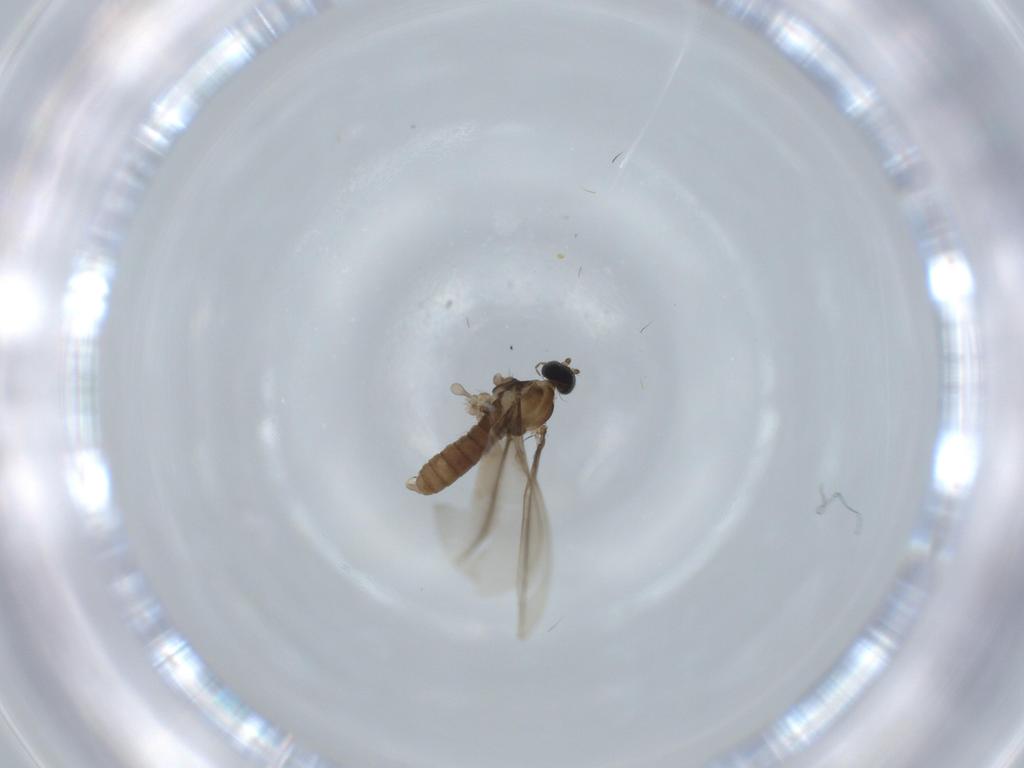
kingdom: Animalia
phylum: Arthropoda
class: Insecta
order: Diptera
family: Cecidomyiidae
